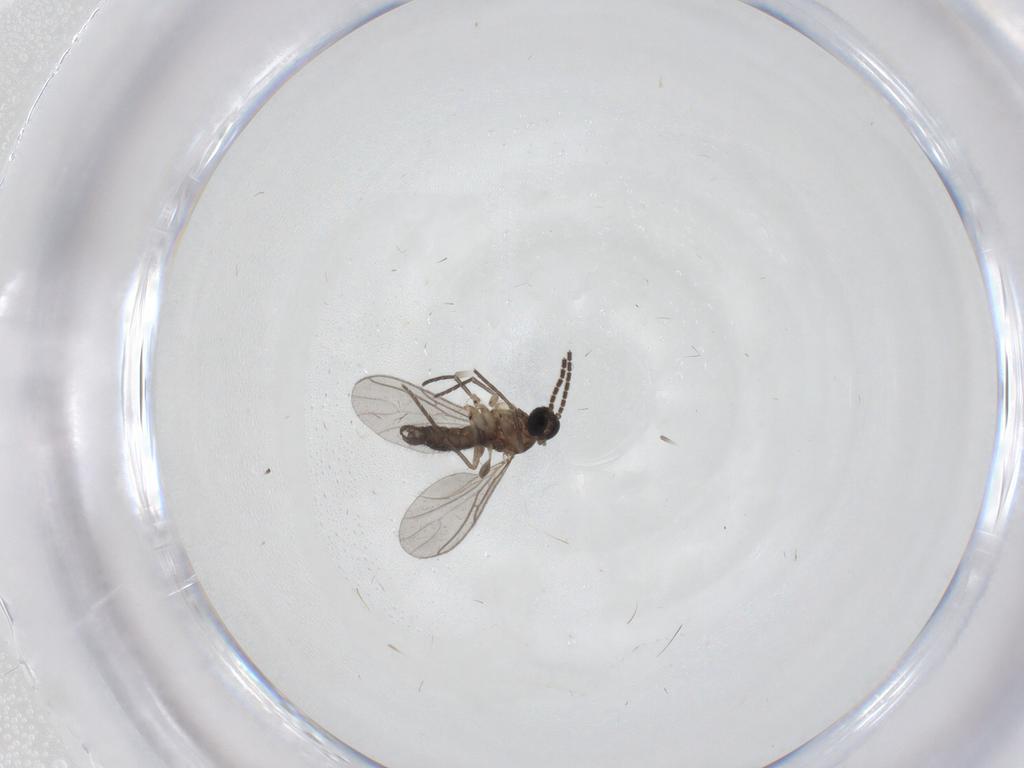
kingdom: Animalia
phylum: Arthropoda
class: Insecta
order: Diptera
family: Sciaridae
